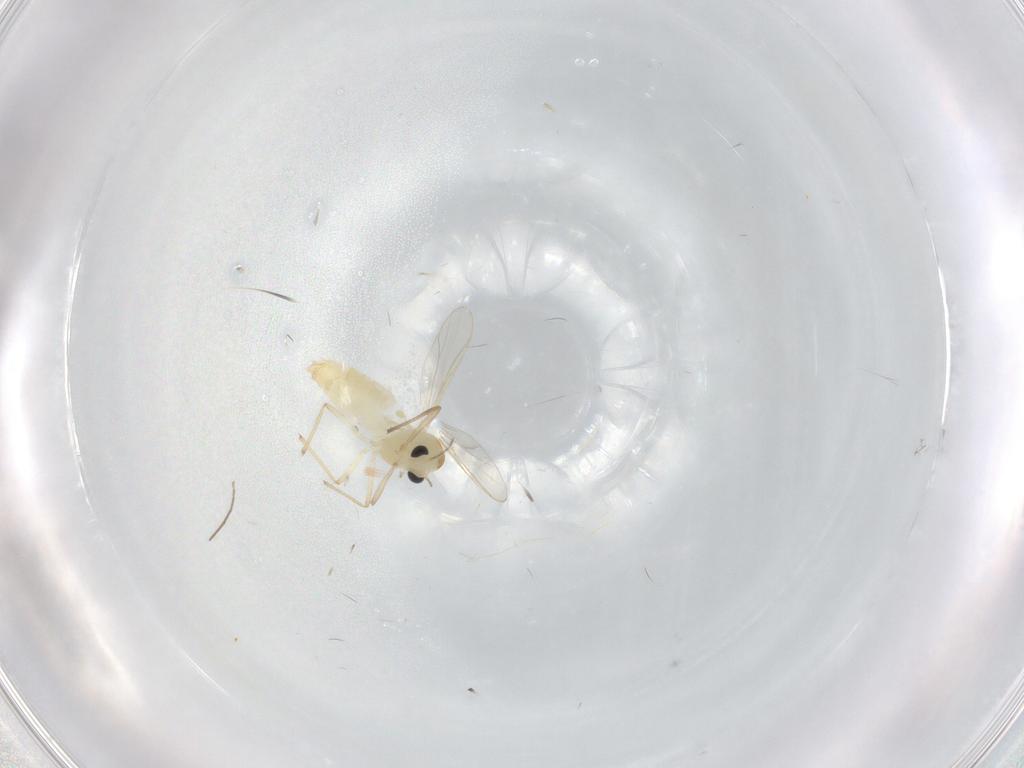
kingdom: Animalia
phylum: Arthropoda
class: Insecta
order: Diptera
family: Chironomidae
